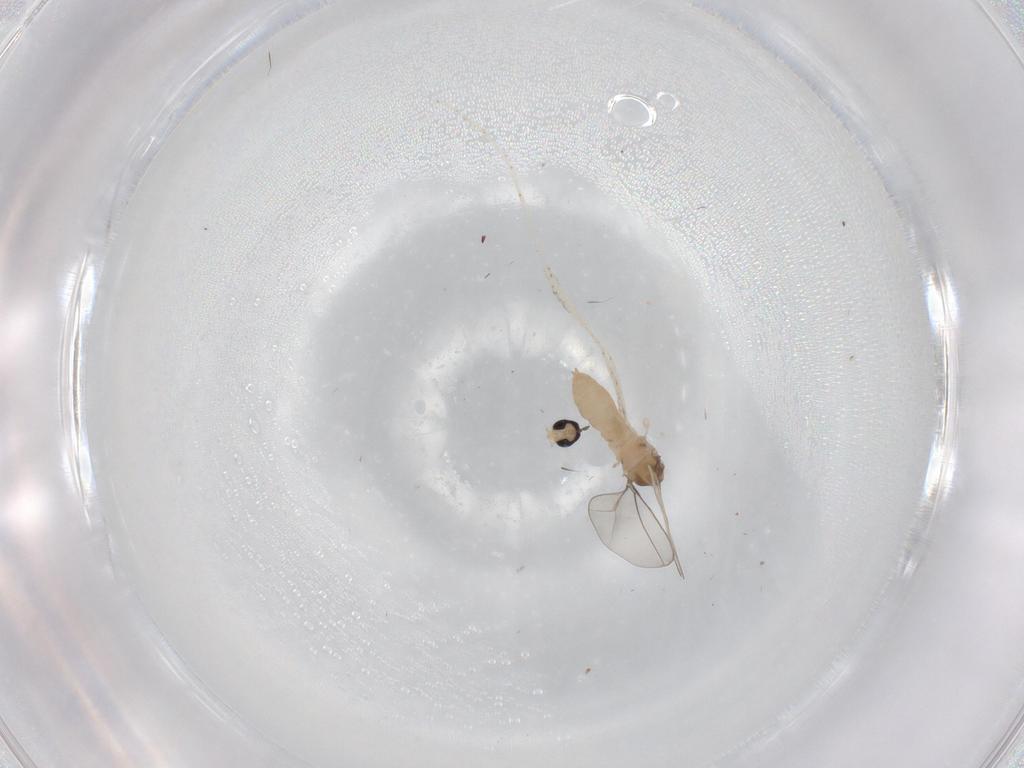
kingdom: Animalia
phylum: Arthropoda
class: Insecta
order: Diptera
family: Cecidomyiidae
